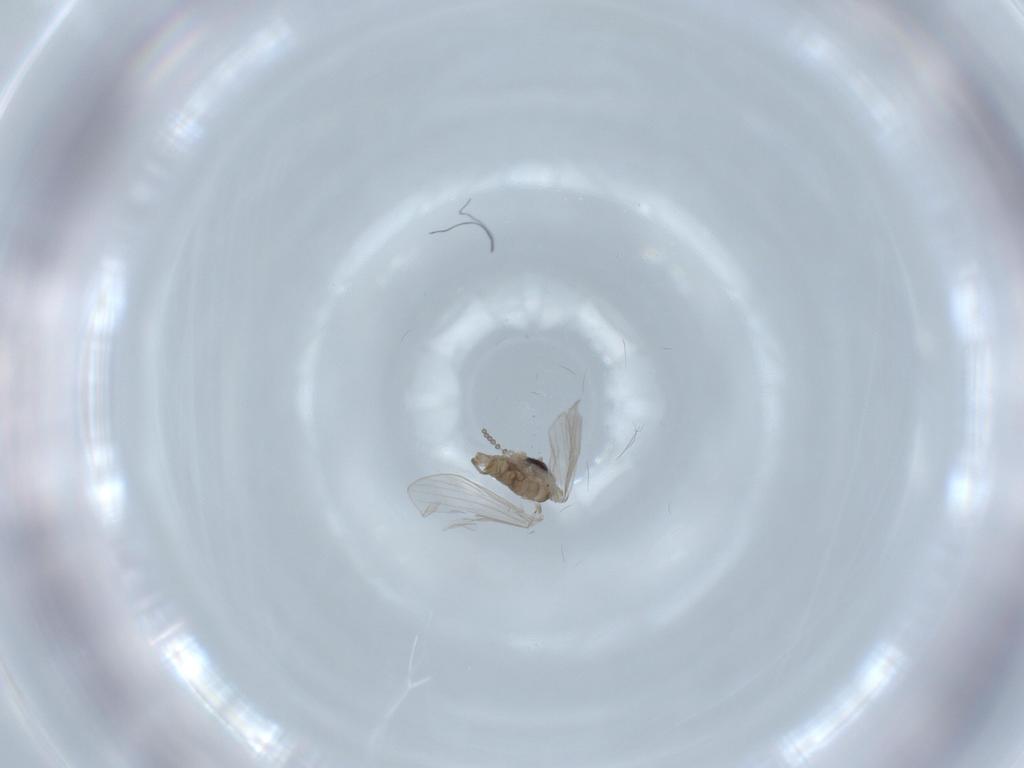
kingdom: Animalia
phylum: Arthropoda
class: Insecta
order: Diptera
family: Psychodidae
